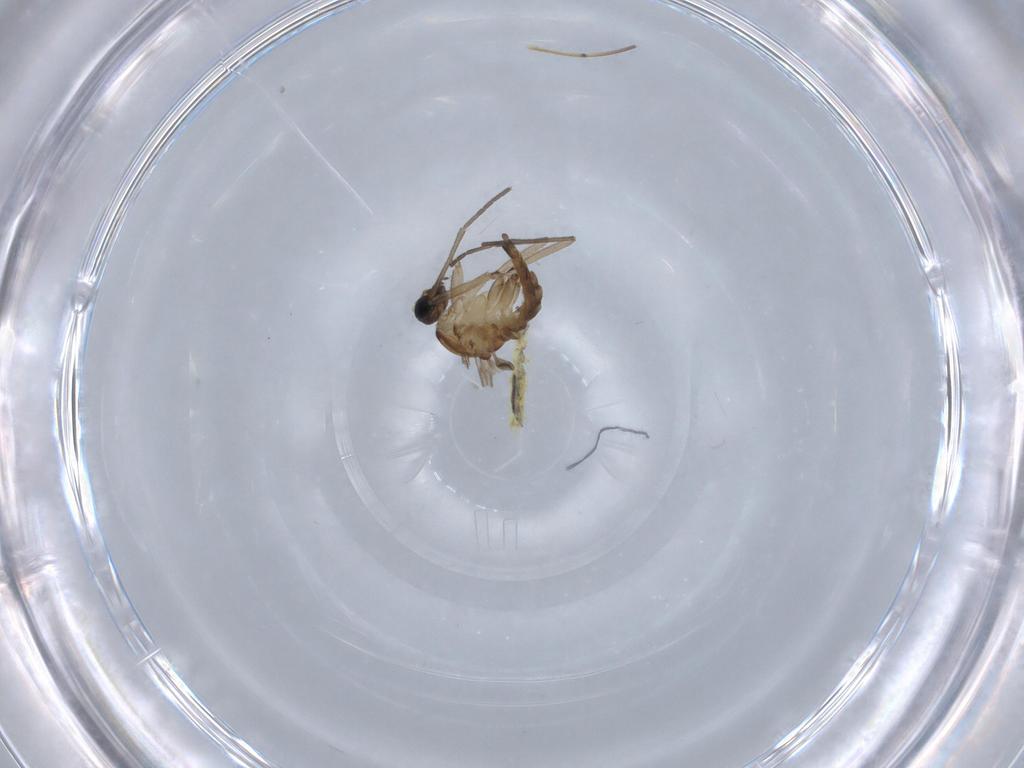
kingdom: Animalia
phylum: Arthropoda
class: Insecta
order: Diptera
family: Sciaridae
